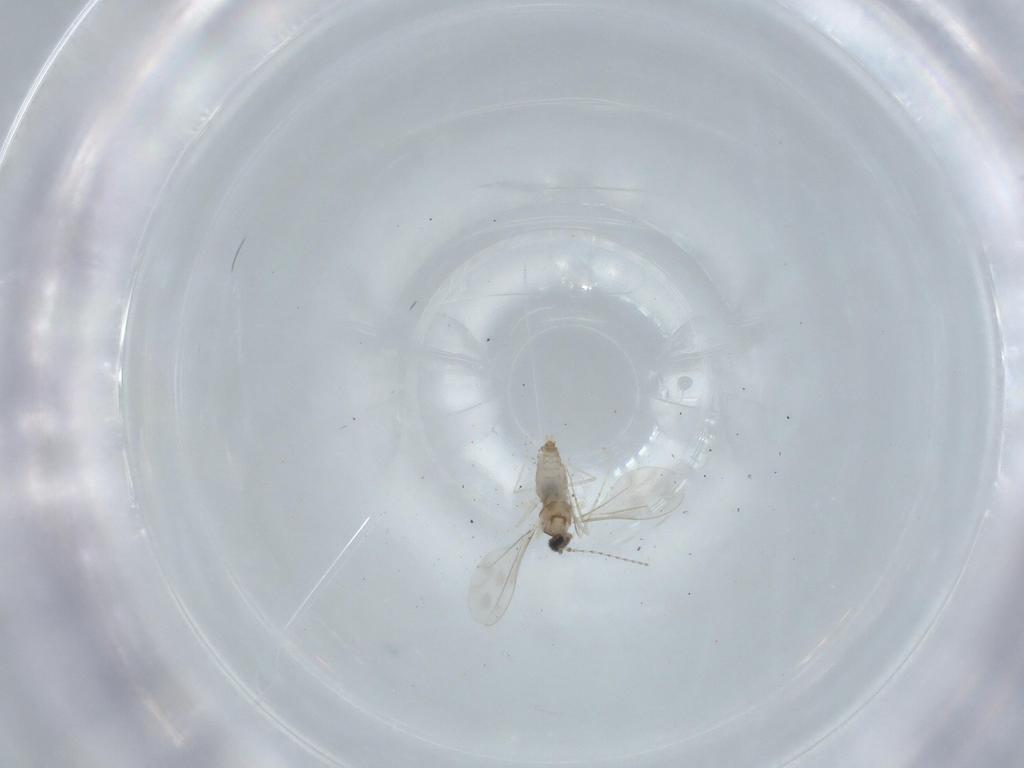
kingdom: Animalia
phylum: Arthropoda
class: Insecta
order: Diptera
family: Cecidomyiidae
